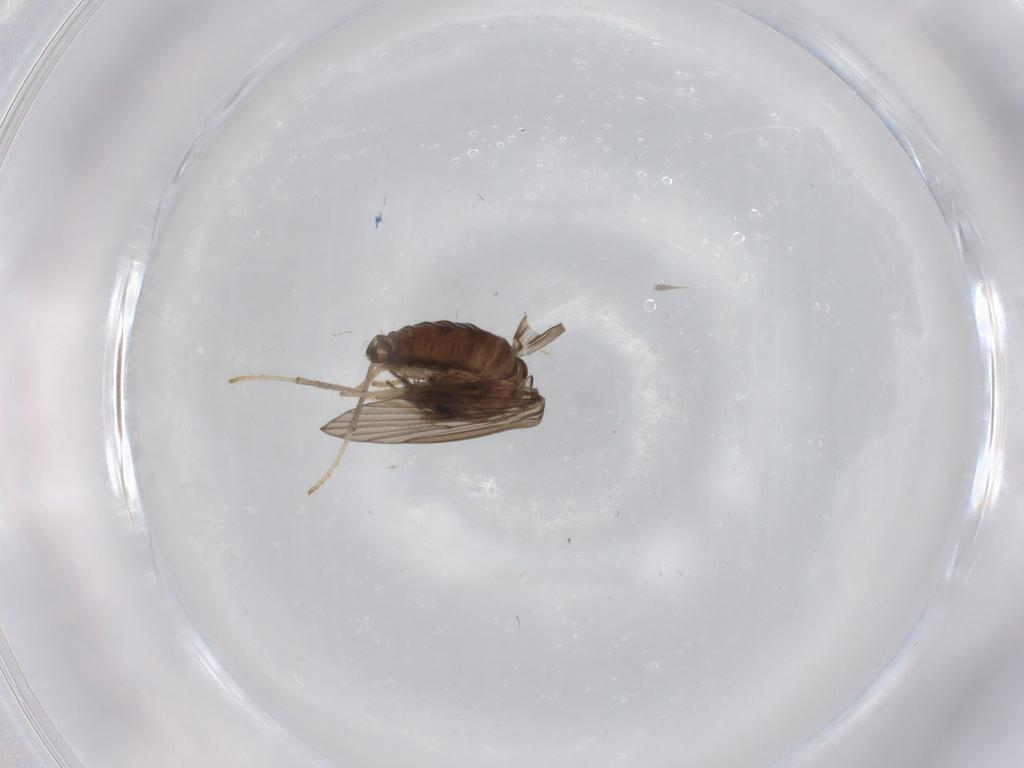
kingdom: Animalia
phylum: Arthropoda
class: Insecta
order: Diptera
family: Psychodidae
